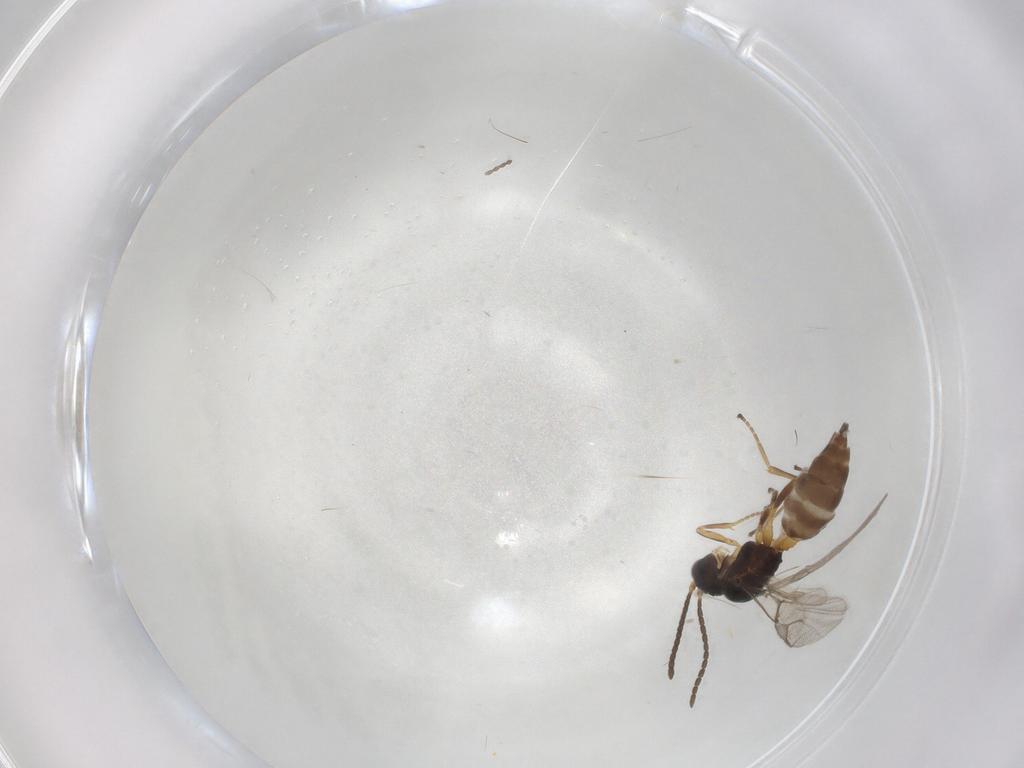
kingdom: Animalia
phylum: Arthropoda
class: Insecta
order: Hymenoptera
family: Braconidae
